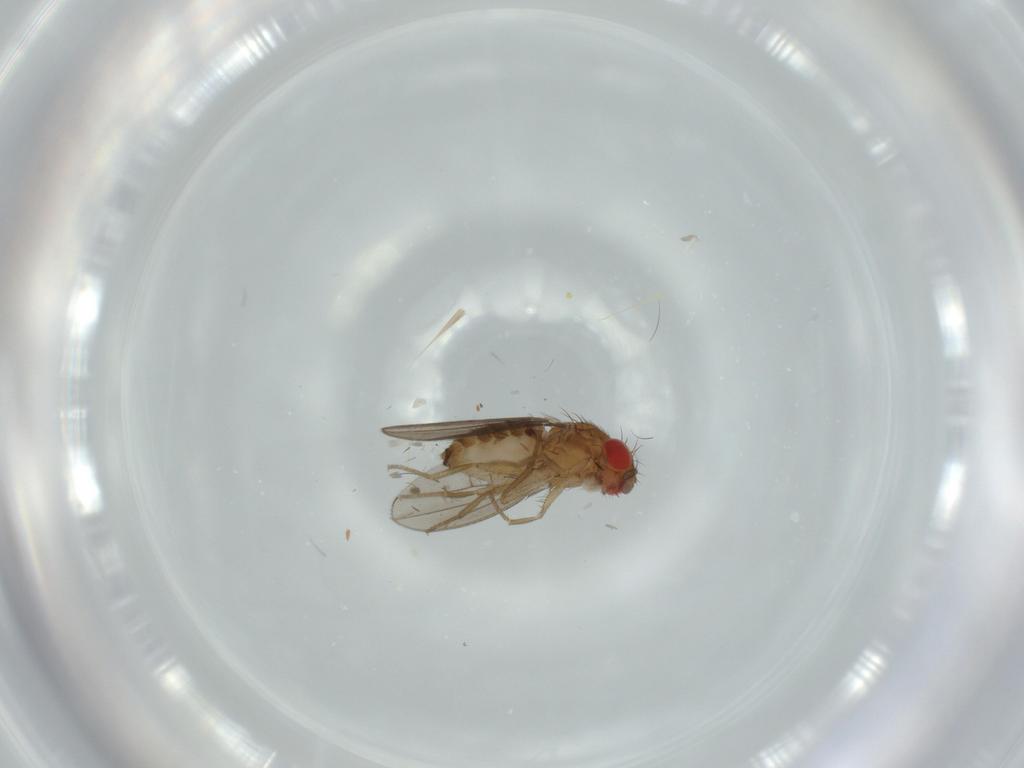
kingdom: Animalia
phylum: Arthropoda
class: Insecta
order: Diptera
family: Drosophilidae
